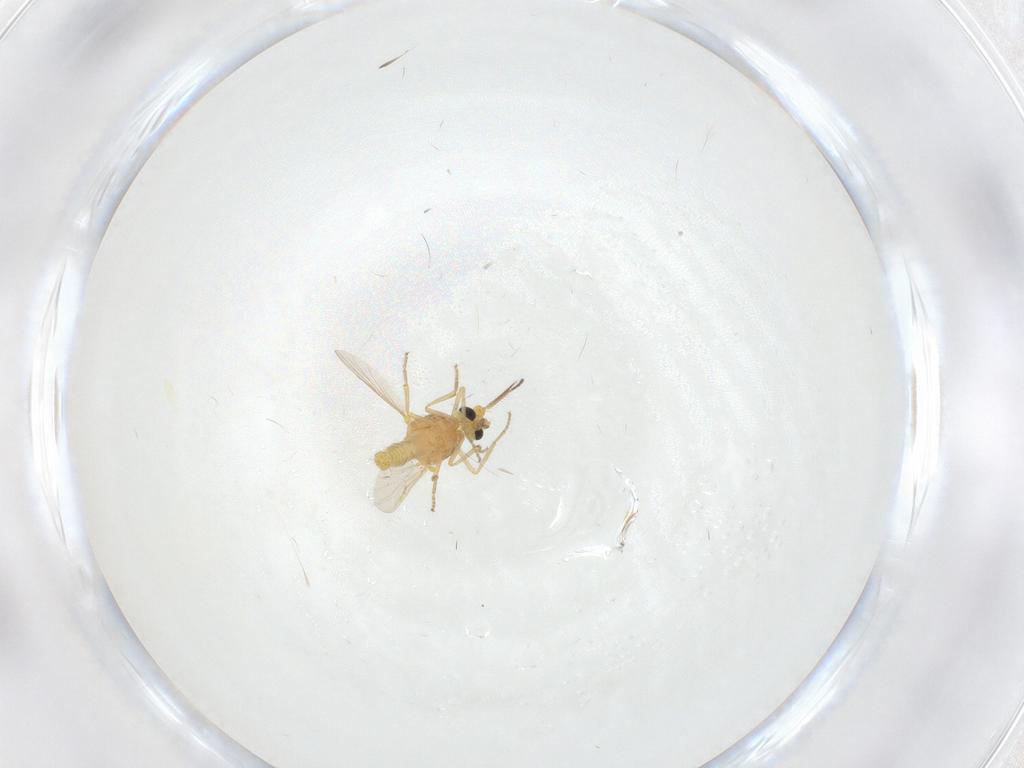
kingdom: Animalia
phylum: Arthropoda
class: Insecta
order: Diptera
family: Ceratopogonidae
